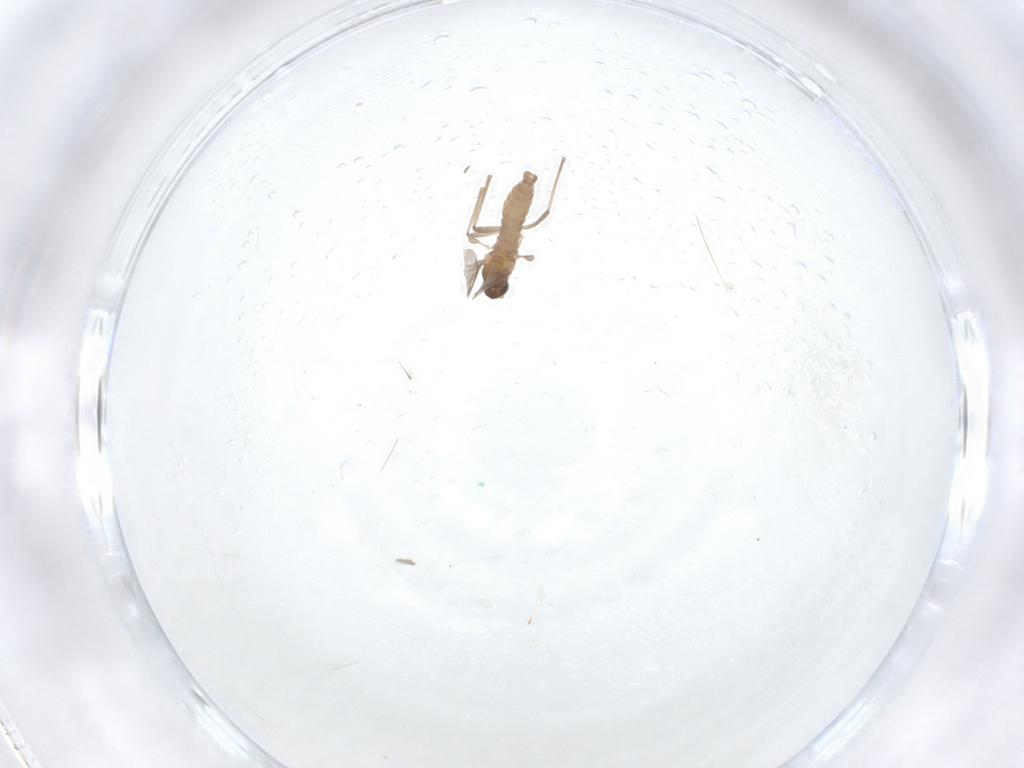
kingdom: Animalia
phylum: Arthropoda
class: Insecta
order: Diptera
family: Cecidomyiidae
